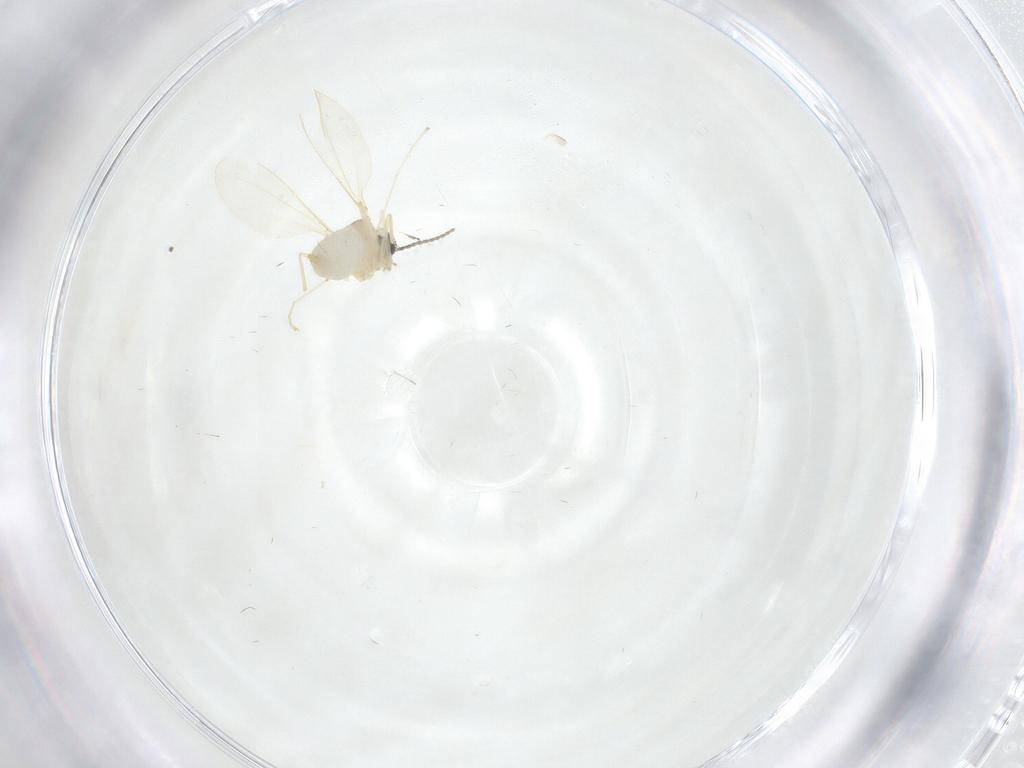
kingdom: Animalia
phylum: Arthropoda
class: Insecta
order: Diptera
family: Cecidomyiidae
